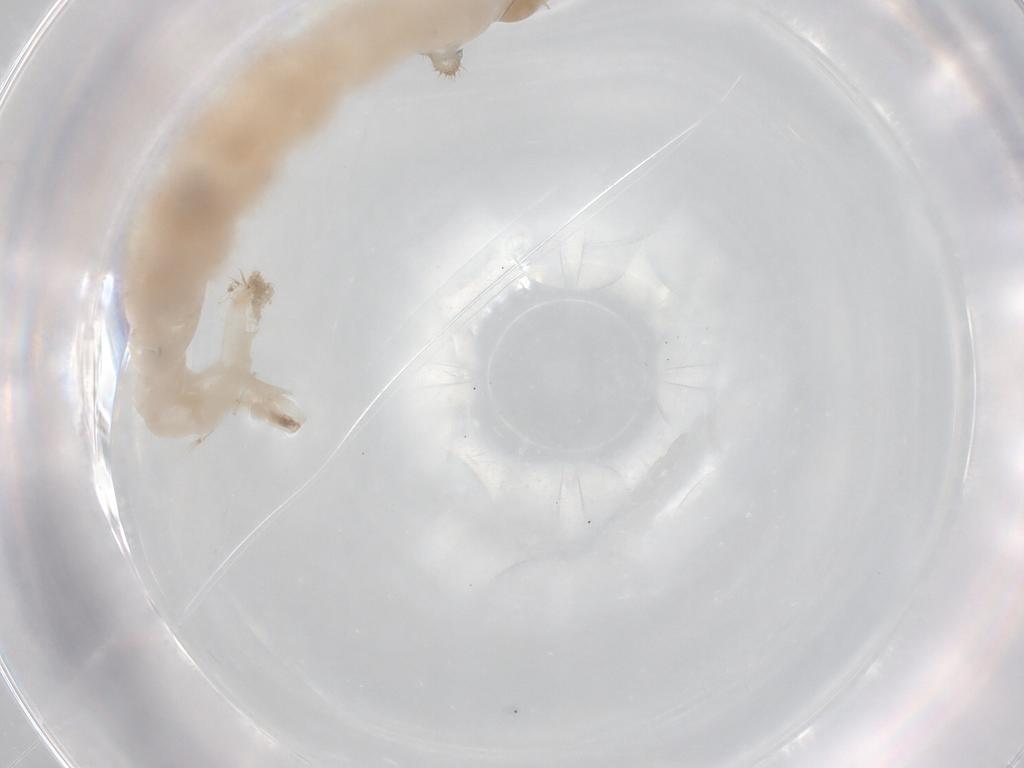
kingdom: Animalia
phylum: Arthropoda
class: Insecta
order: Diptera
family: Chironomidae
